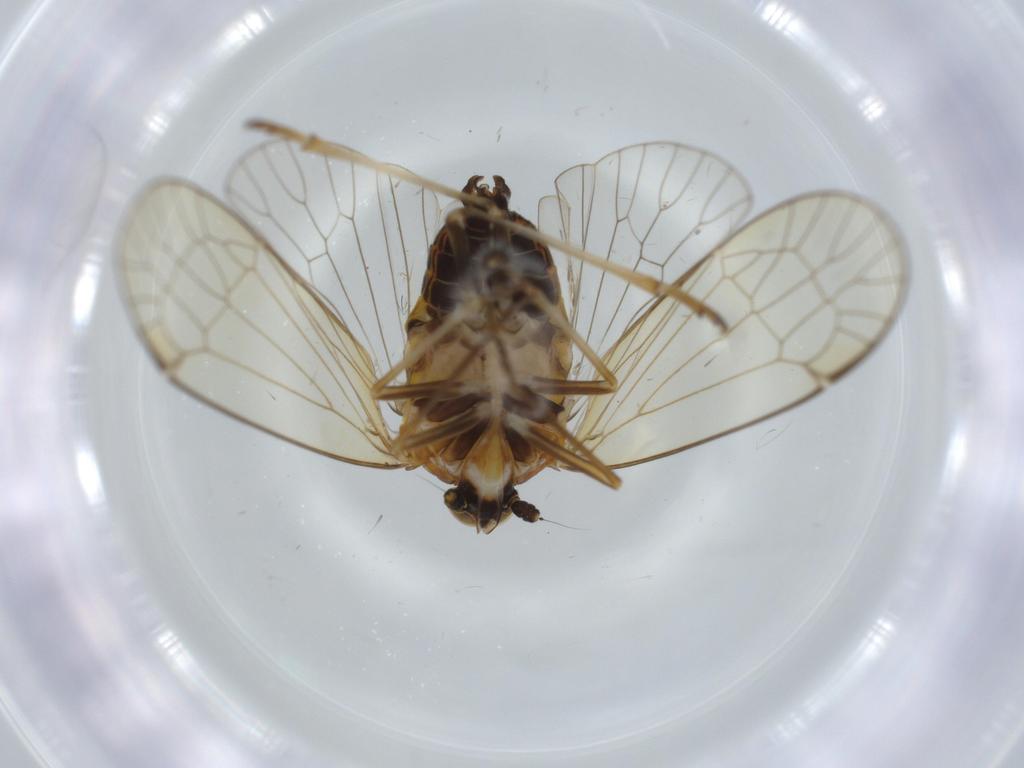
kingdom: Animalia
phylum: Arthropoda
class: Insecta
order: Hemiptera
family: Kinnaridae
